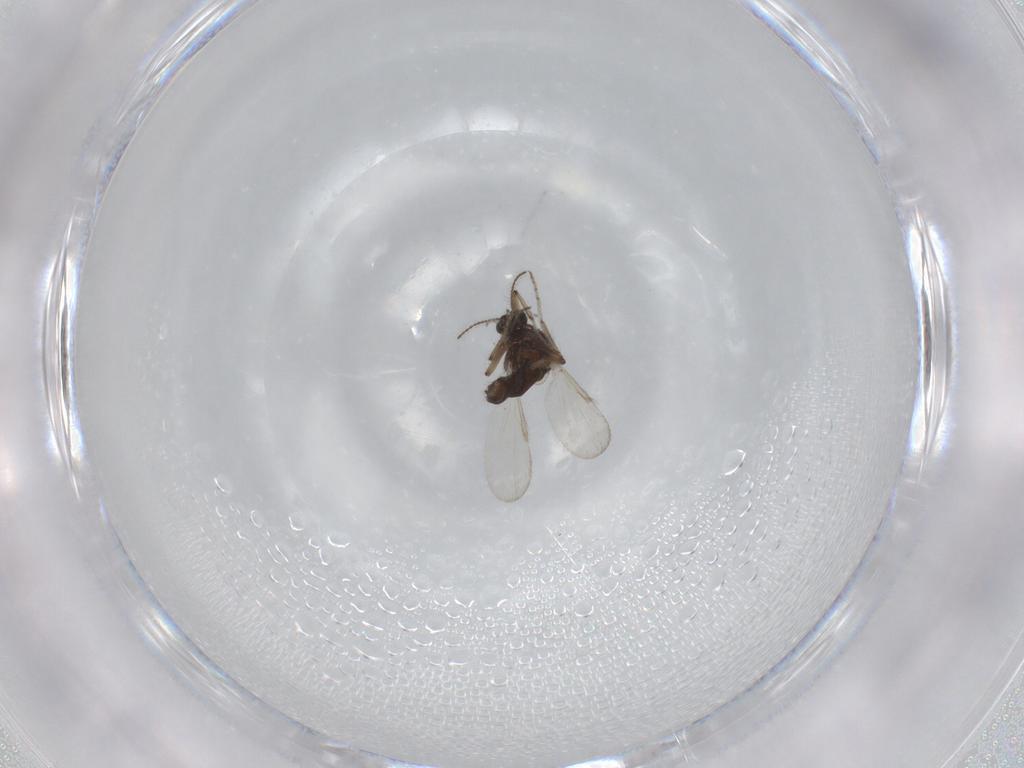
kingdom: Animalia
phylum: Arthropoda
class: Insecta
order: Diptera
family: Ceratopogonidae
